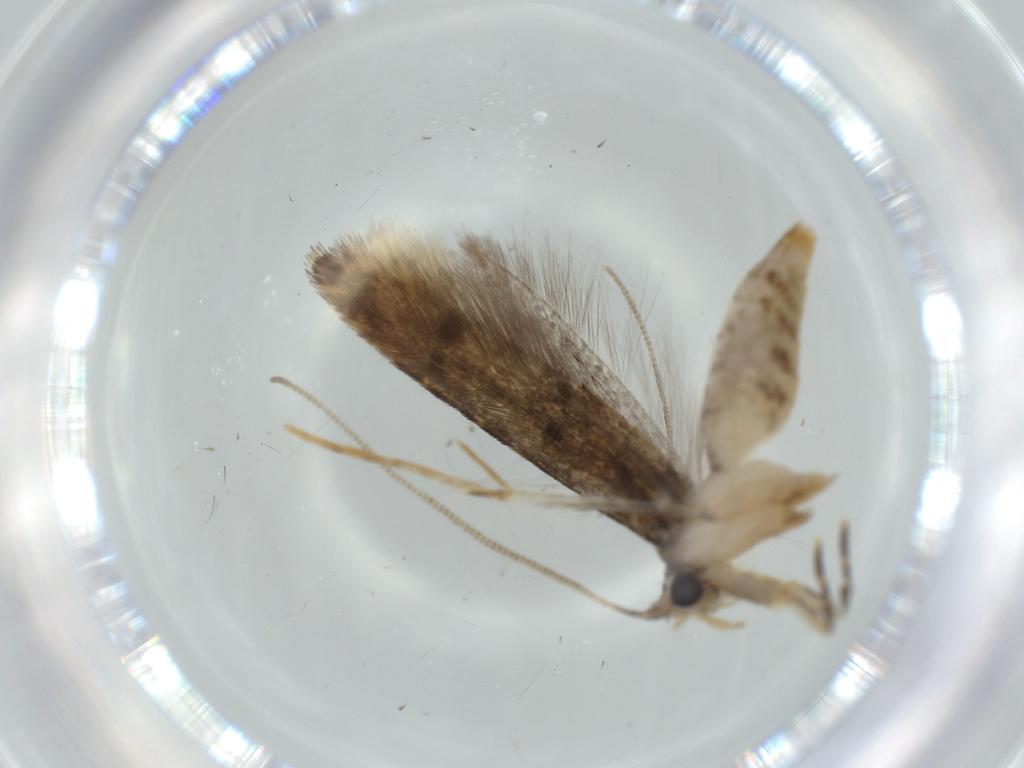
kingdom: Animalia
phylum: Arthropoda
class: Insecta
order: Lepidoptera
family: Tineidae
